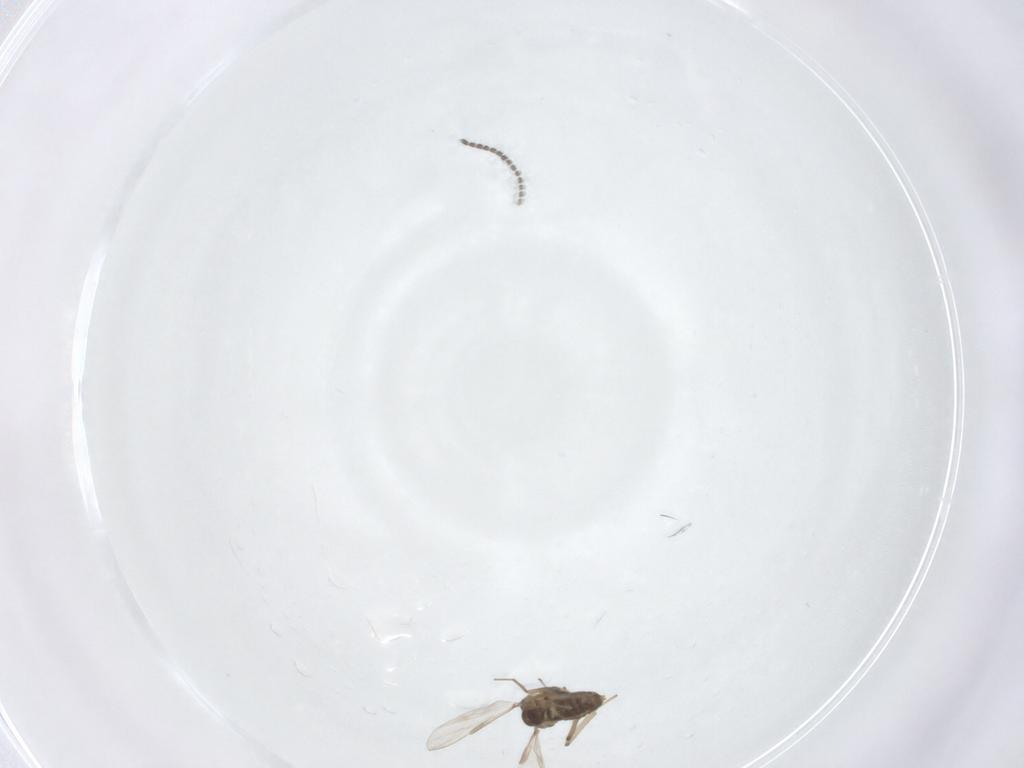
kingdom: Animalia
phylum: Arthropoda
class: Insecta
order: Diptera
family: Chironomidae
